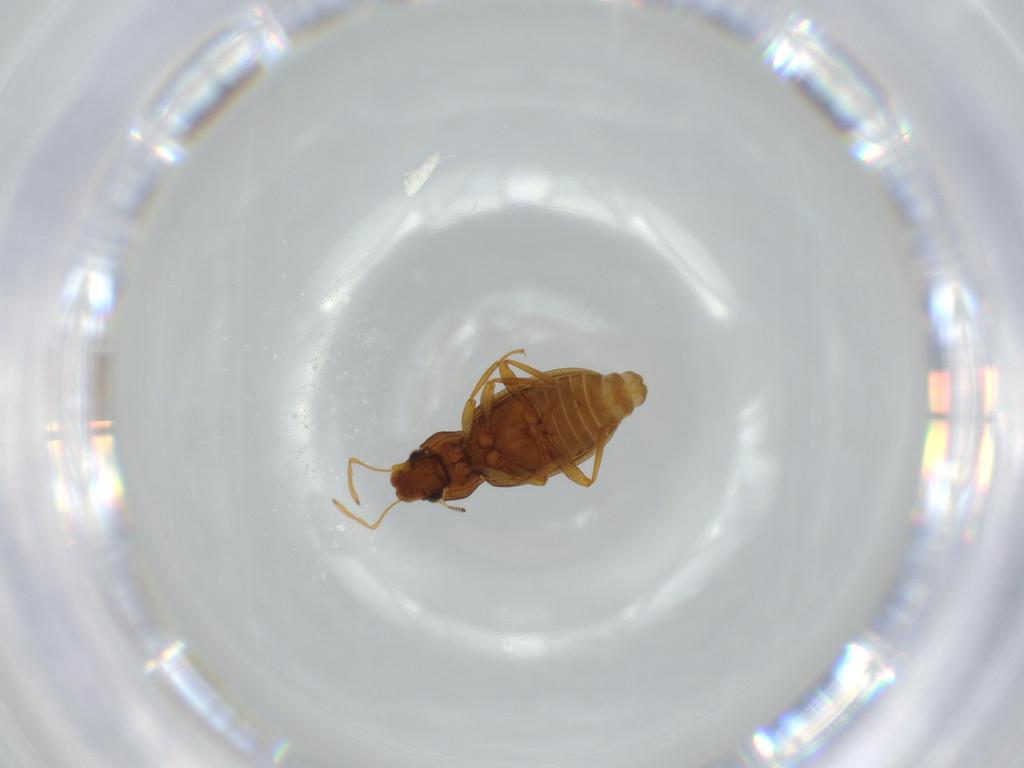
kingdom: Animalia
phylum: Arthropoda
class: Insecta
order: Coleoptera
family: Hydraenidae
